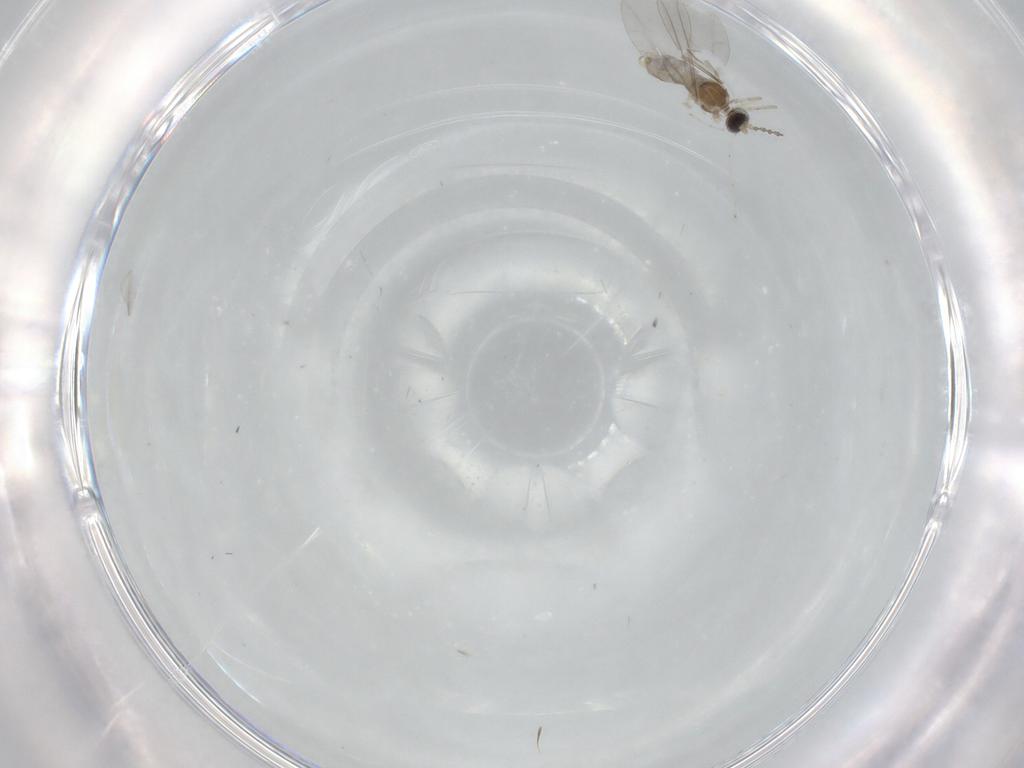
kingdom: Animalia
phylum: Arthropoda
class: Insecta
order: Diptera
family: Cecidomyiidae
